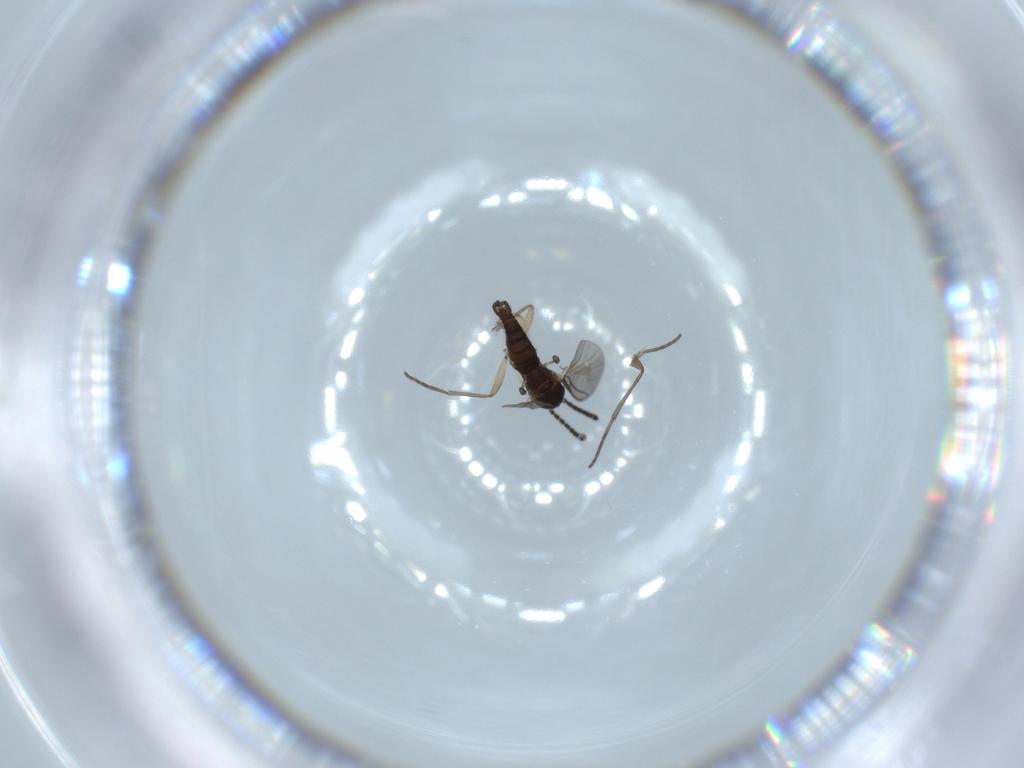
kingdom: Animalia
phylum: Arthropoda
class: Insecta
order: Diptera
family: Sciaridae
